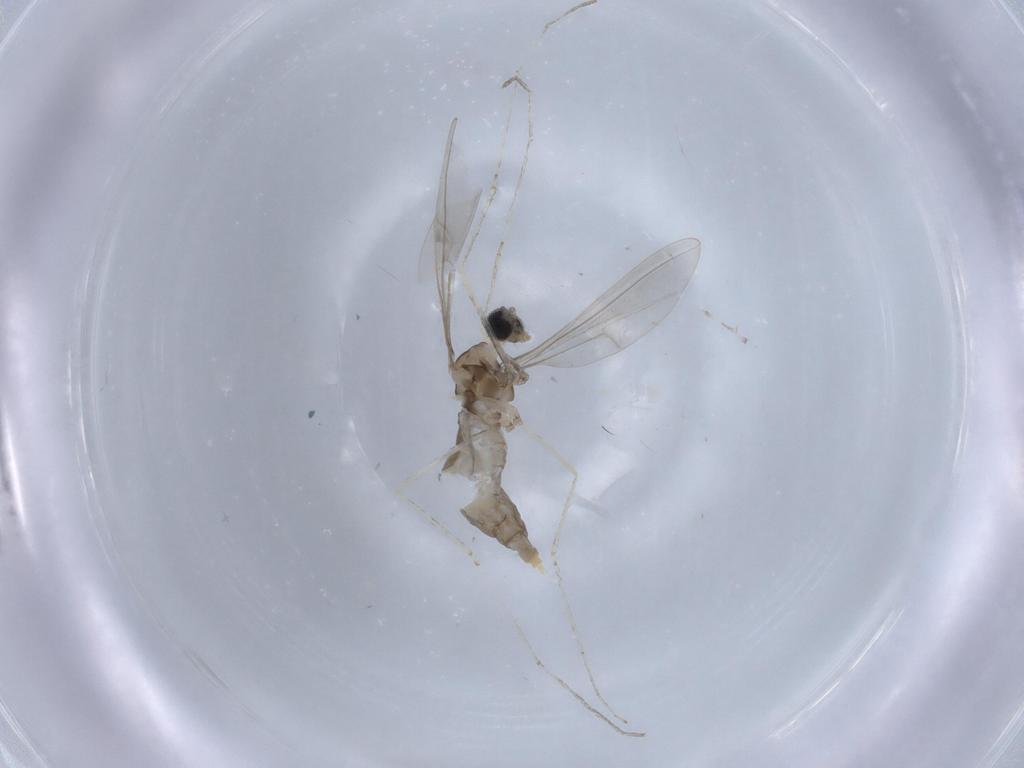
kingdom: Animalia
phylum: Arthropoda
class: Insecta
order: Diptera
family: Cecidomyiidae
